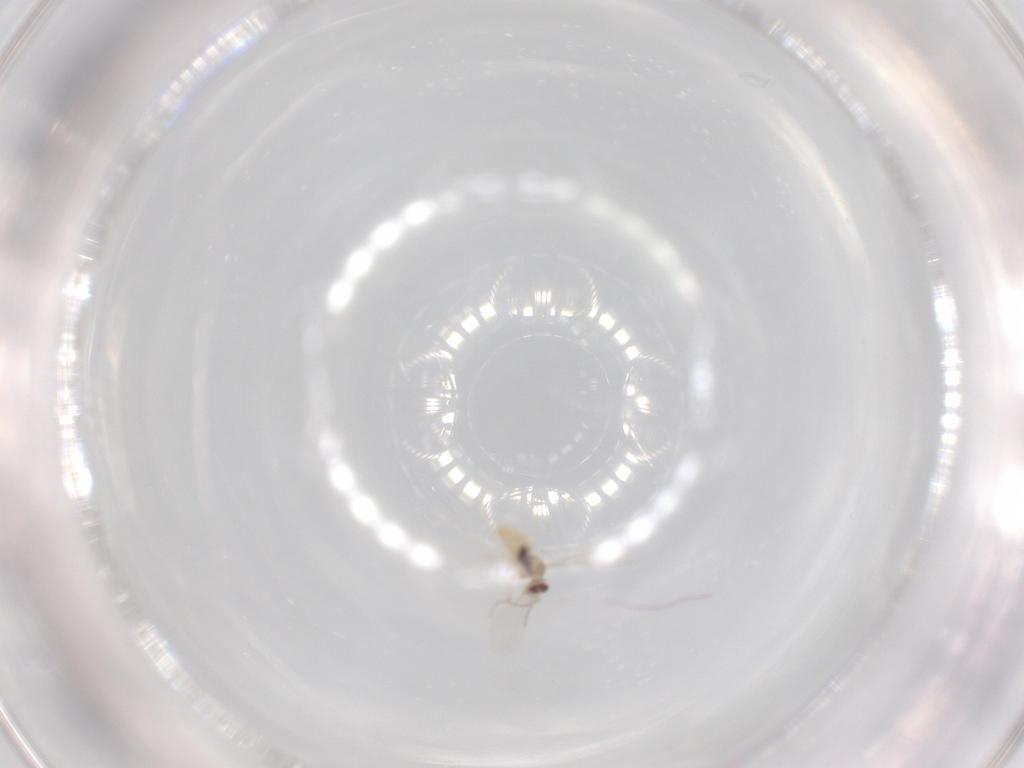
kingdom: Animalia
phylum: Arthropoda
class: Insecta
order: Diptera
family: Cecidomyiidae
